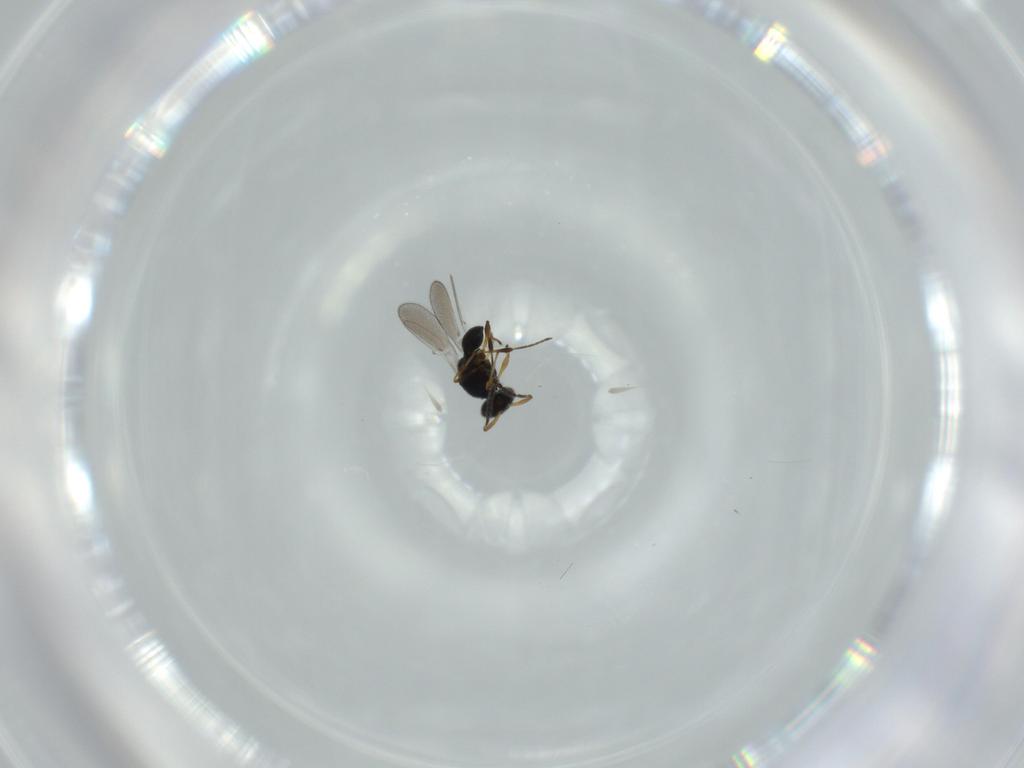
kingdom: Animalia
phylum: Arthropoda
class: Insecta
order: Hymenoptera
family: Platygastridae
